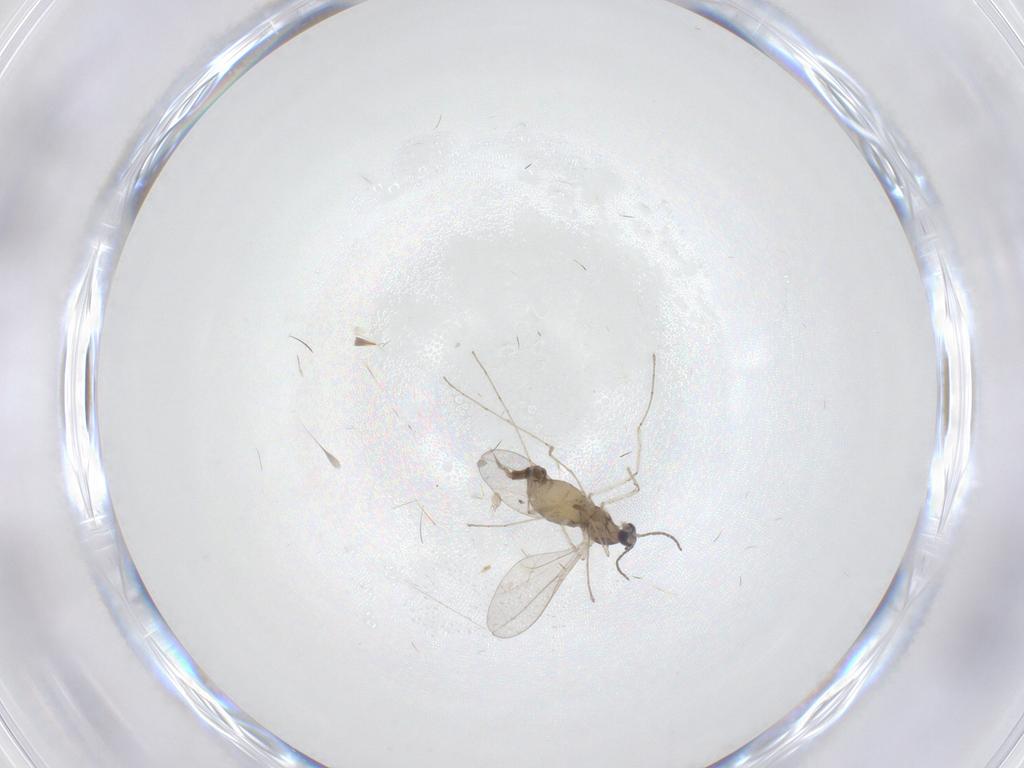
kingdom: Animalia
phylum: Arthropoda
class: Insecta
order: Diptera
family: Cecidomyiidae
